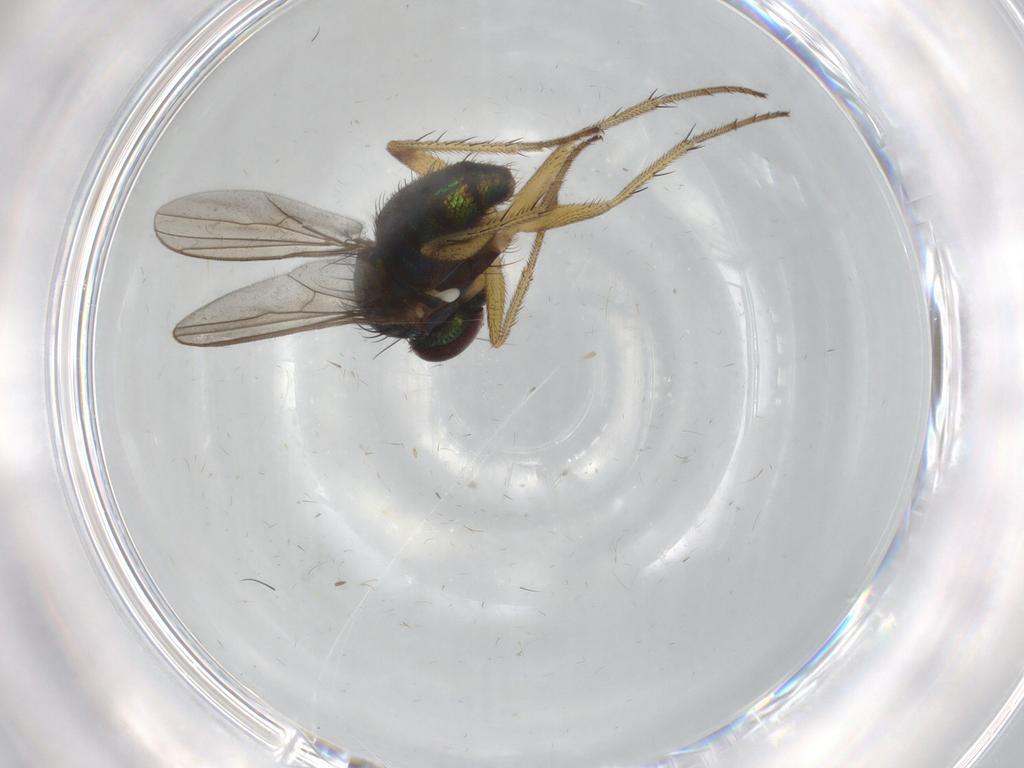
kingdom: Animalia
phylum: Arthropoda
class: Insecta
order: Diptera
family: Dolichopodidae
